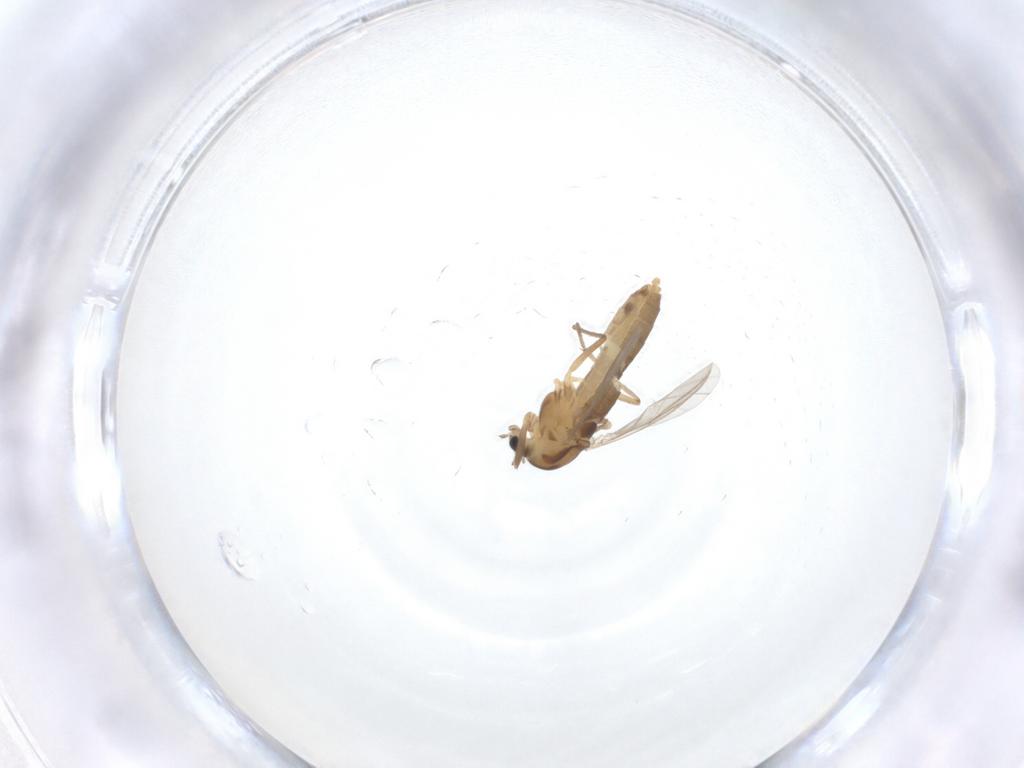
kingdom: Animalia
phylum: Arthropoda
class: Insecta
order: Diptera
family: Chironomidae
